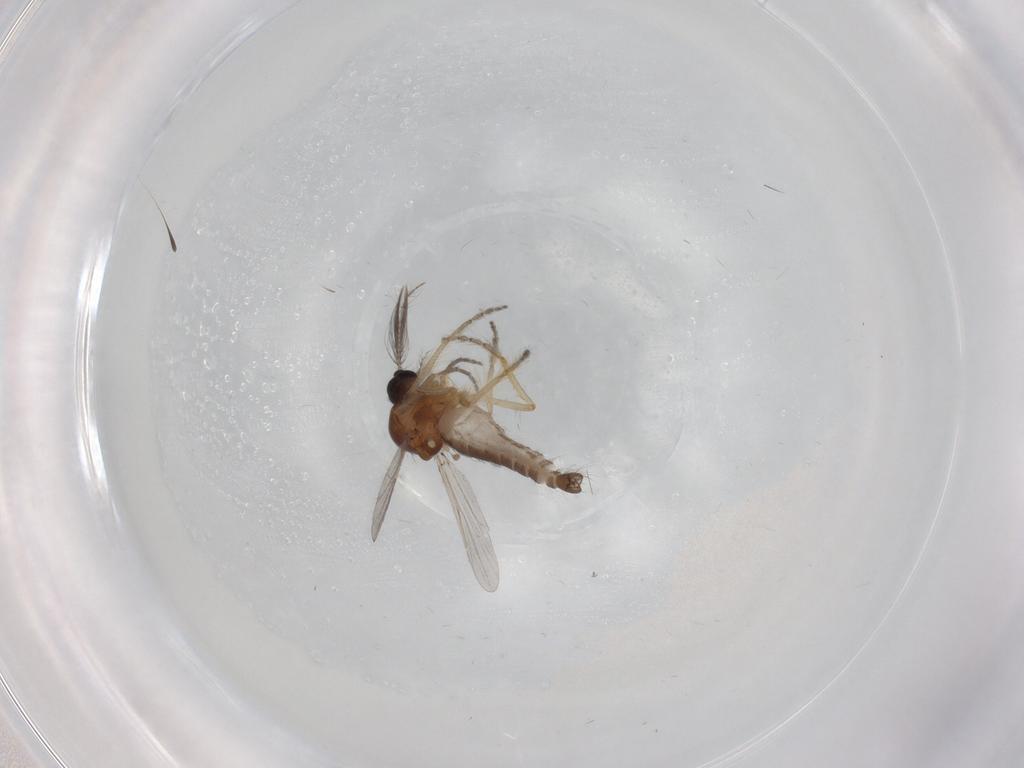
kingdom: Animalia
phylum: Arthropoda
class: Insecta
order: Diptera
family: Ceratopogonidae
